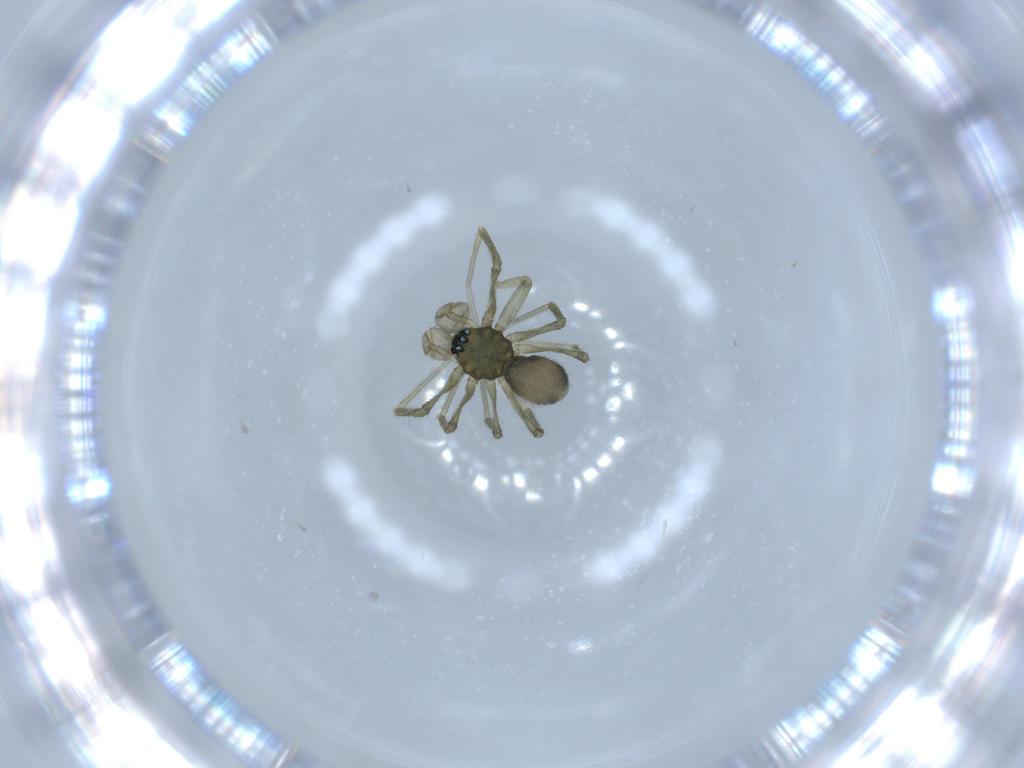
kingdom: Animalia
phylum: Arthropoda
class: Arachnida
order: Araneae
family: Linyphiidae
